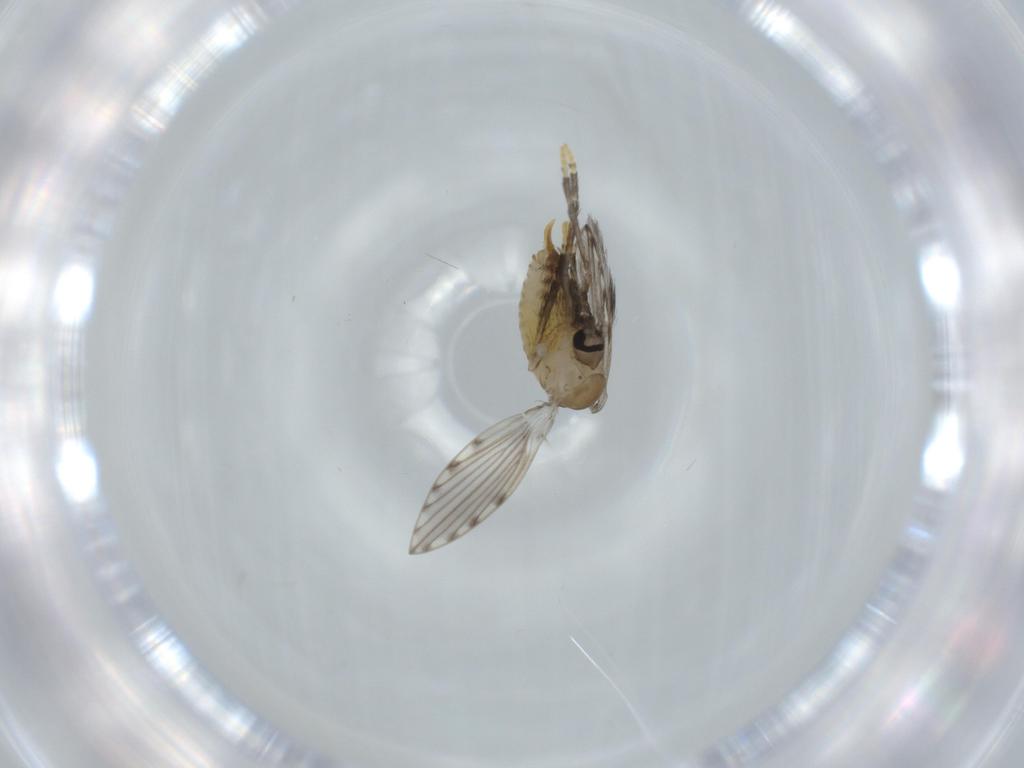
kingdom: Animalia
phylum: Arthropoda
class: Insecta
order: Diptera
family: Psychodidae
